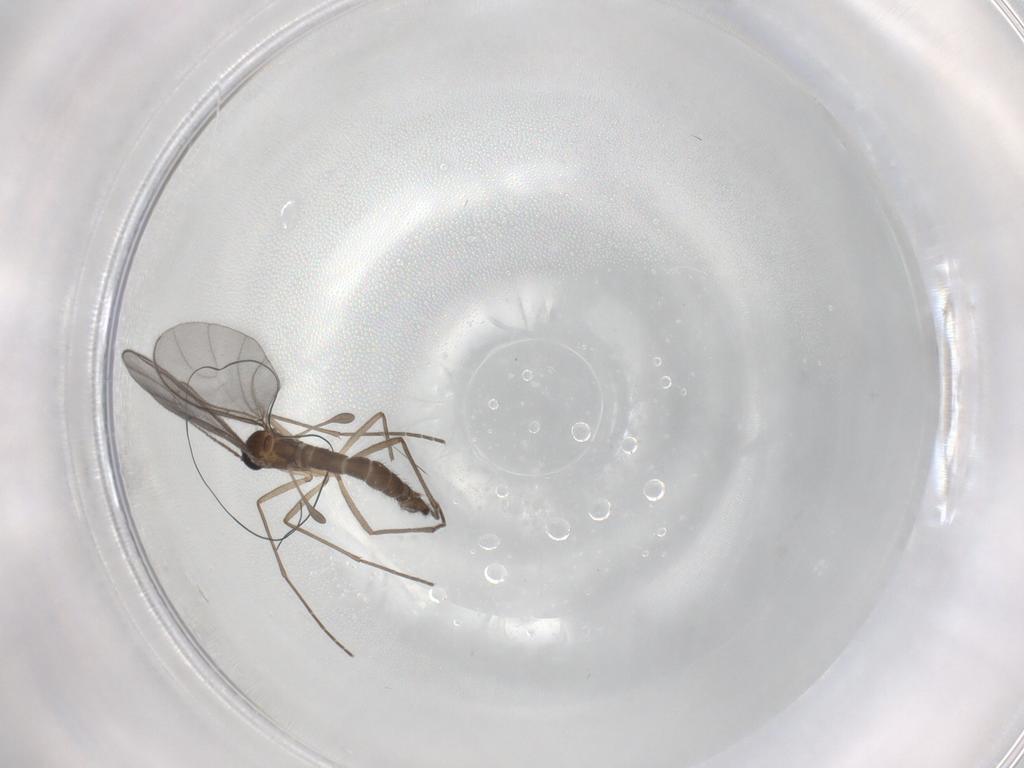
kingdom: Animalia
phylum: Arthropoda
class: Insecta
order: Diptera
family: Sciaridae
